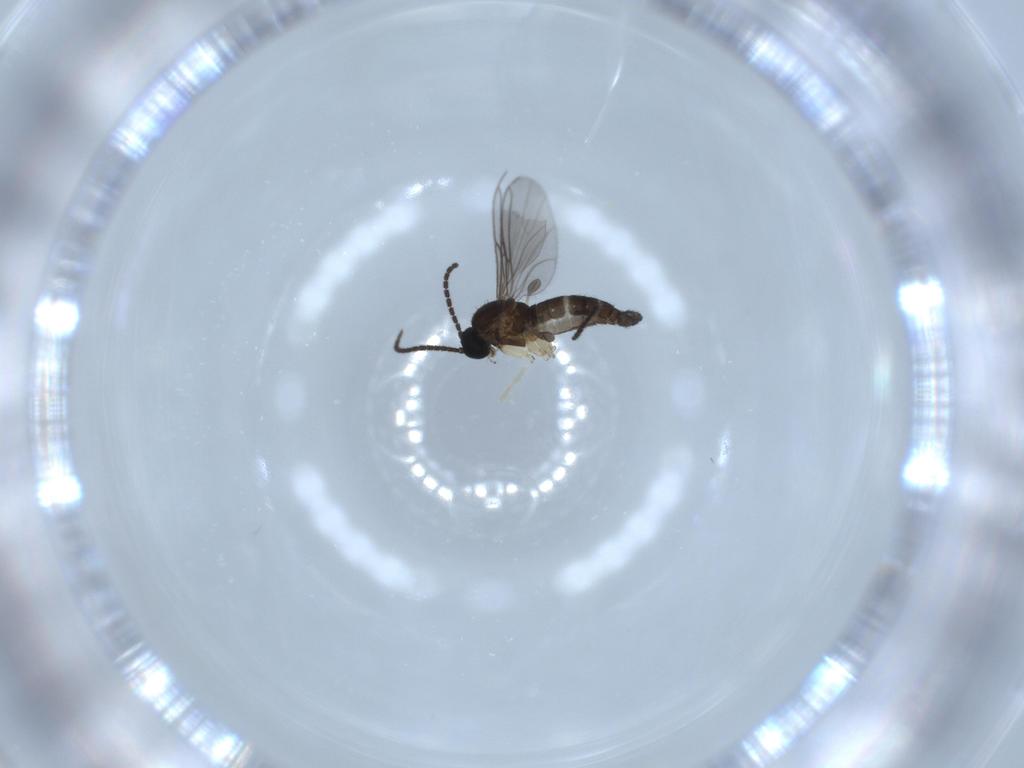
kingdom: Animalia
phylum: Arthropoda
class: Insecta
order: Diptera
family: Sciaridae
